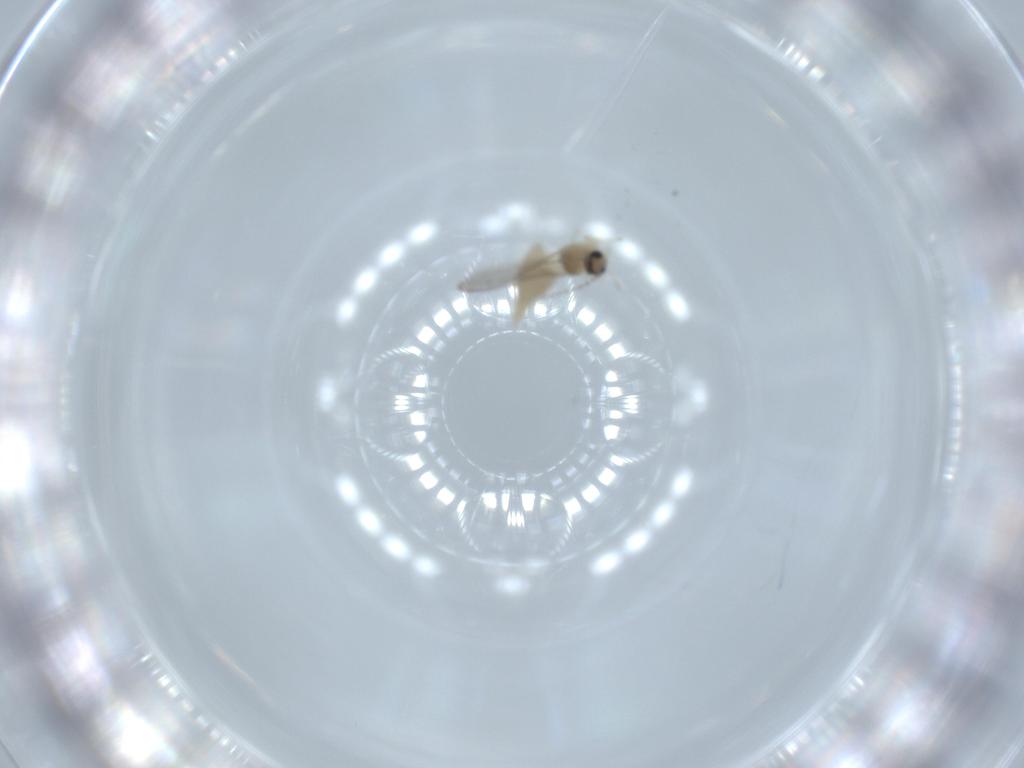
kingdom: Animalia
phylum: Arthropoda
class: Insecta
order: Diptera
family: Cecidomyiidae
